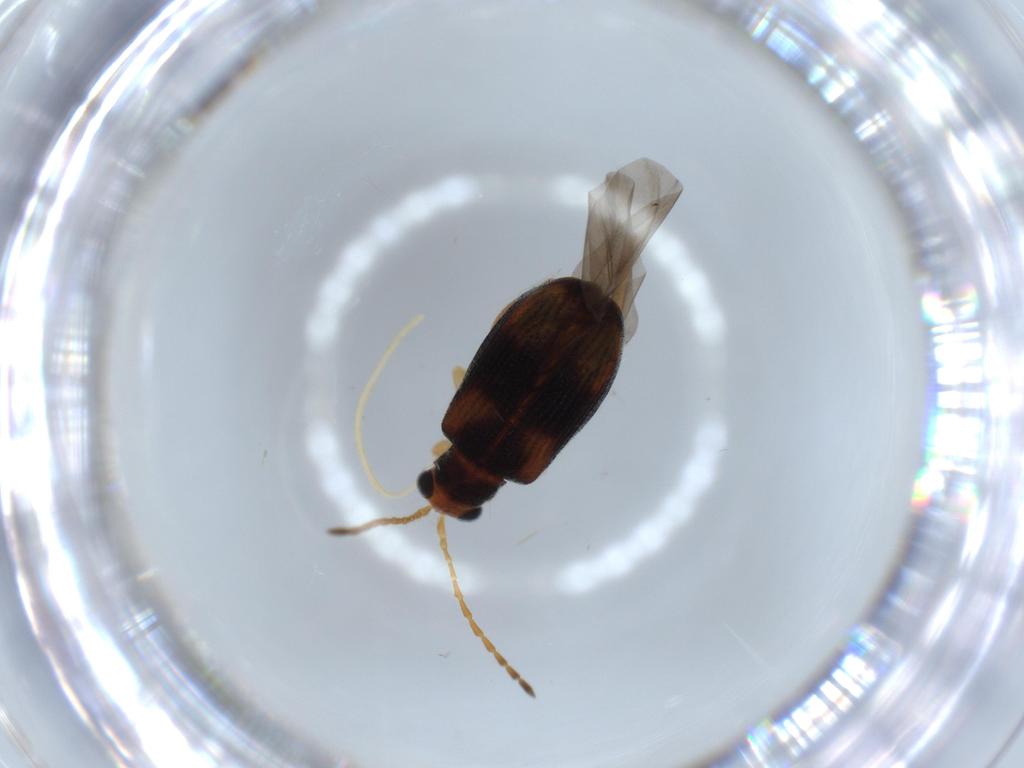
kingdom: Animalia
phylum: Arthropoda
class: Insecta
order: Coleoptera
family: Chrysomelidae
